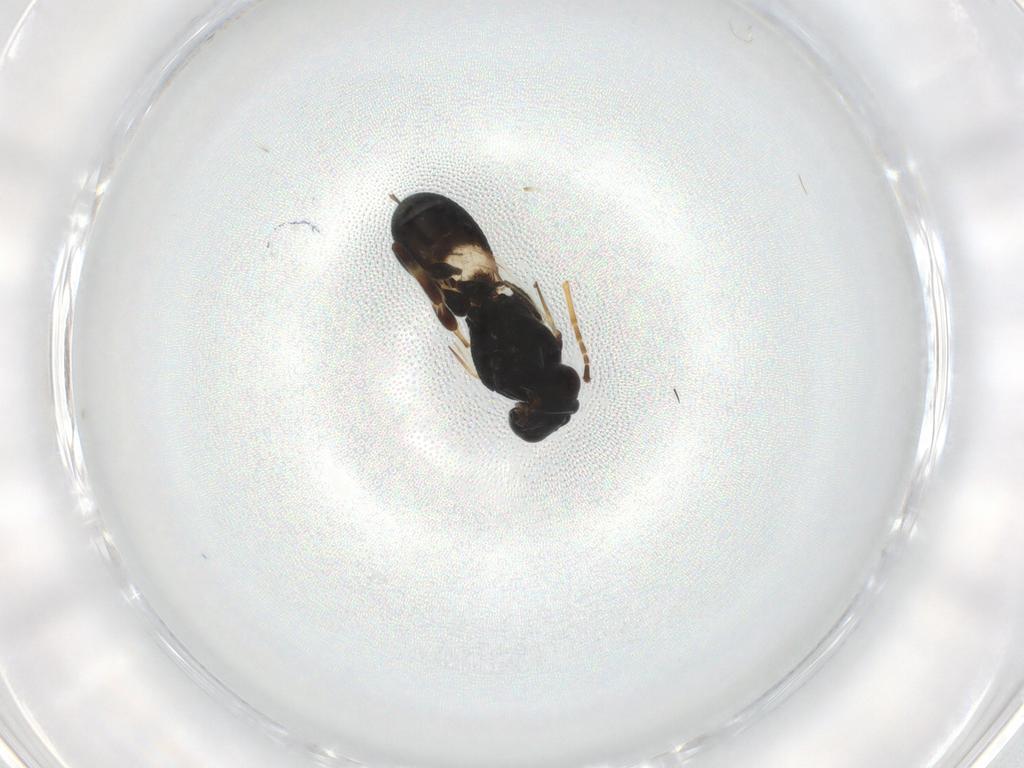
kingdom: Animalia
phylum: Arthropoda
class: Insecta
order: Hymenoptera
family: Braconidae
